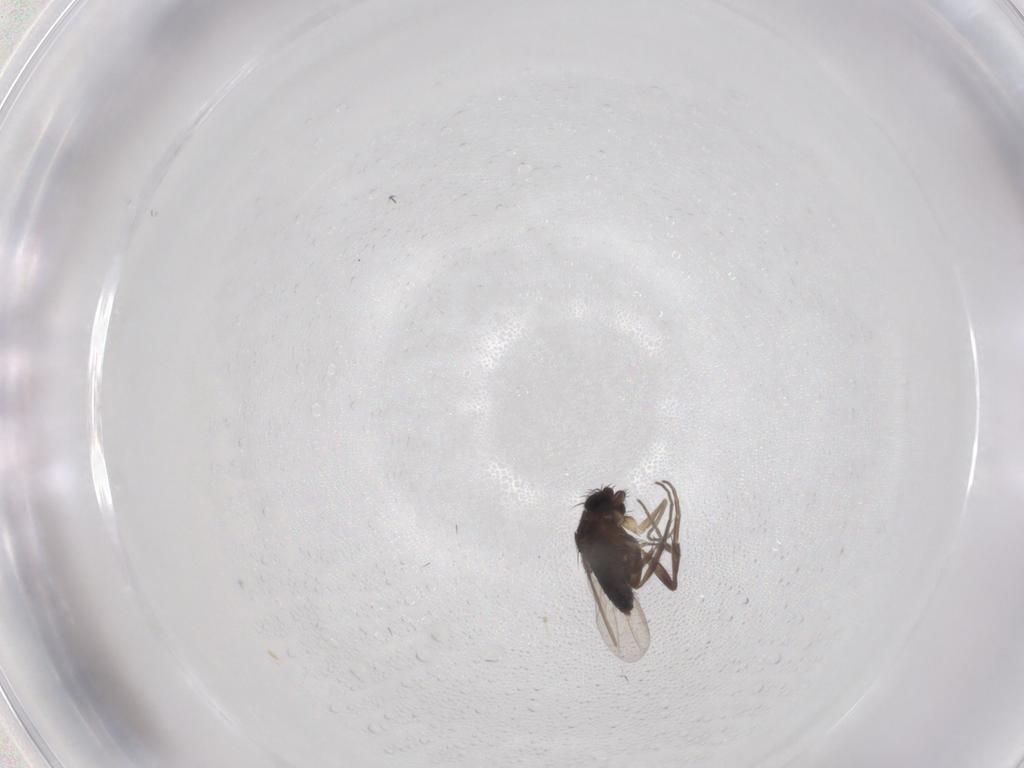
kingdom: Animalia
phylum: Arthropoda
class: Insecta
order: Diptera
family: Phoridae
